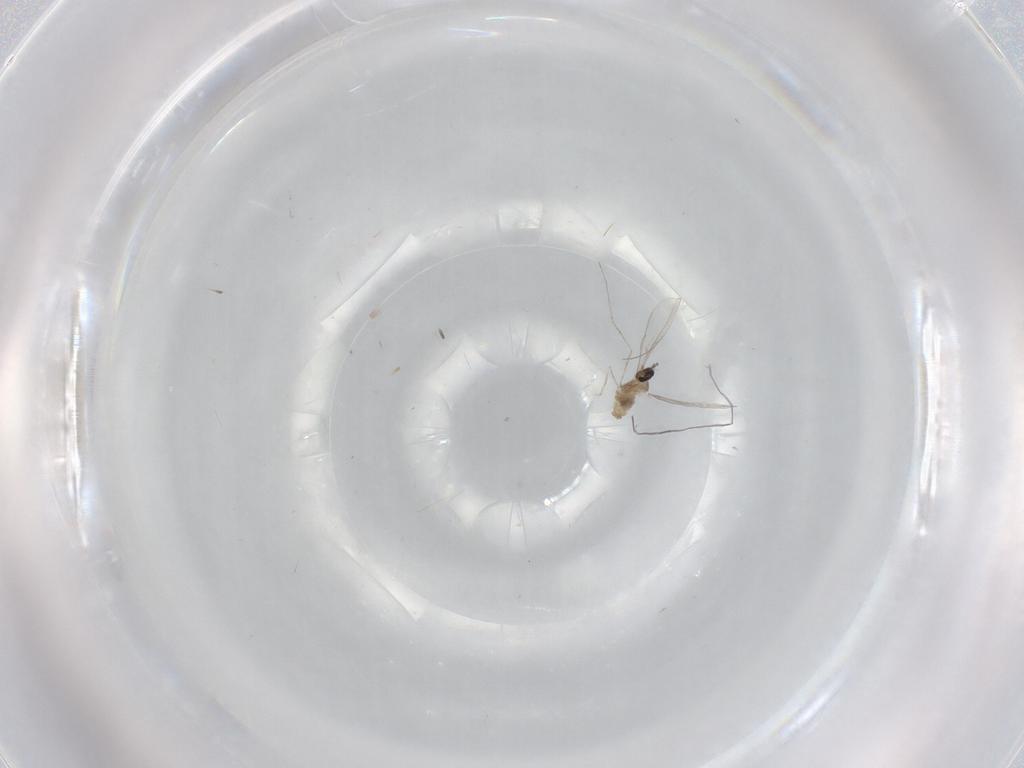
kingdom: Animalia
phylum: Arthropoda
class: Insecta
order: Diptera
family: Cecidomyiidae
